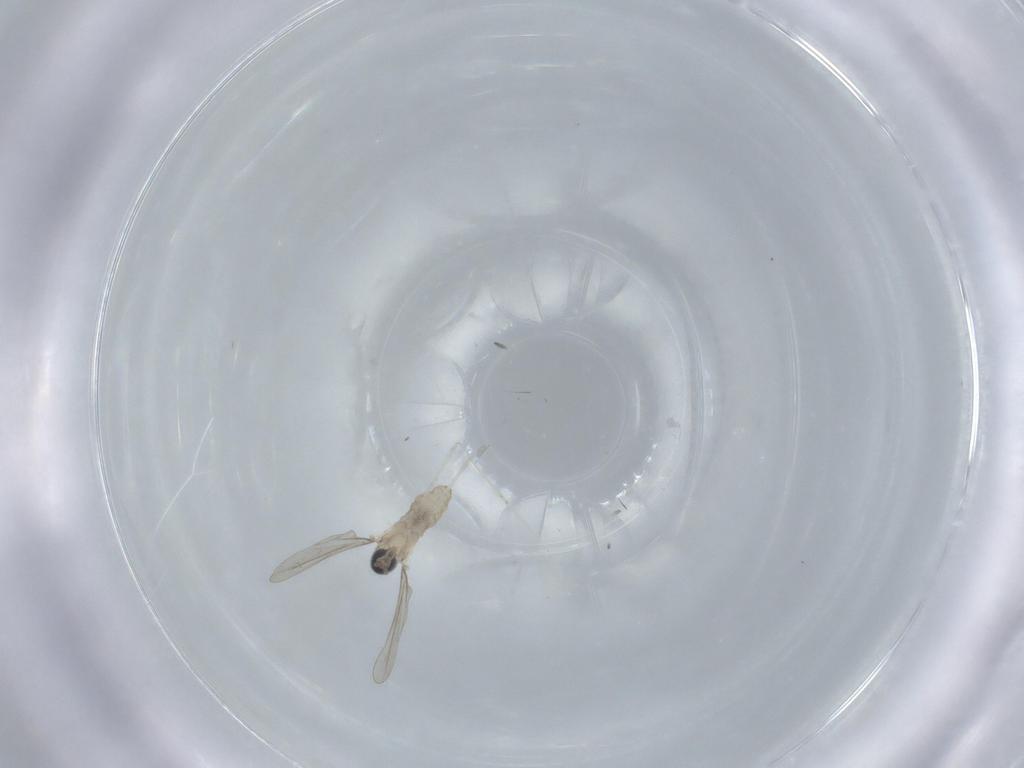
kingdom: Animalia
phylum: Arthropoda
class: Insecta
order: Diptera
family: Cecidomyiidae
